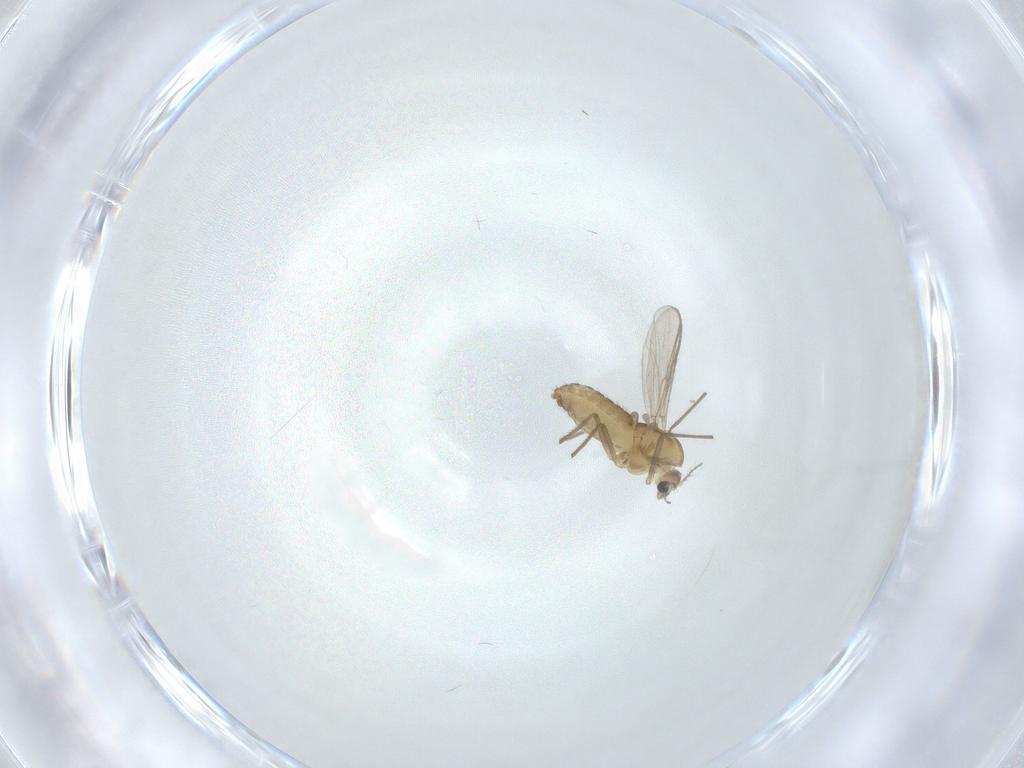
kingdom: Animalia
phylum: Arthropoda
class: Insecta
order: Diptera
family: Chironomidae
